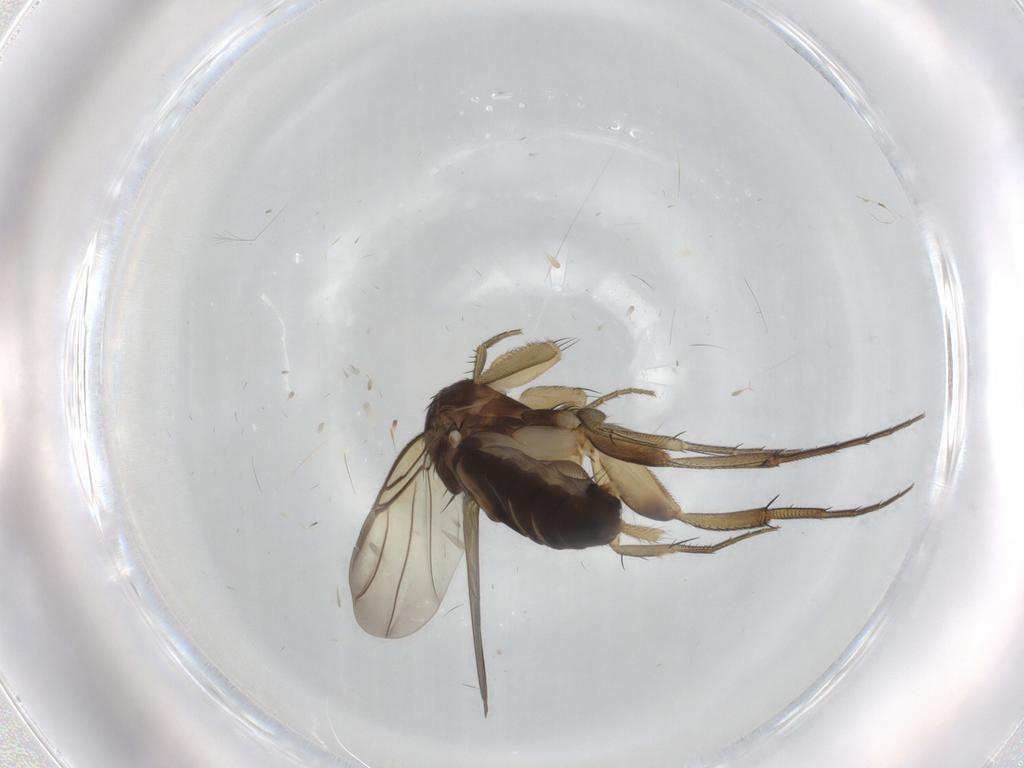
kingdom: Animalia
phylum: Arthropoda
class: Insecta
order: Diptera
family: Phoridae
